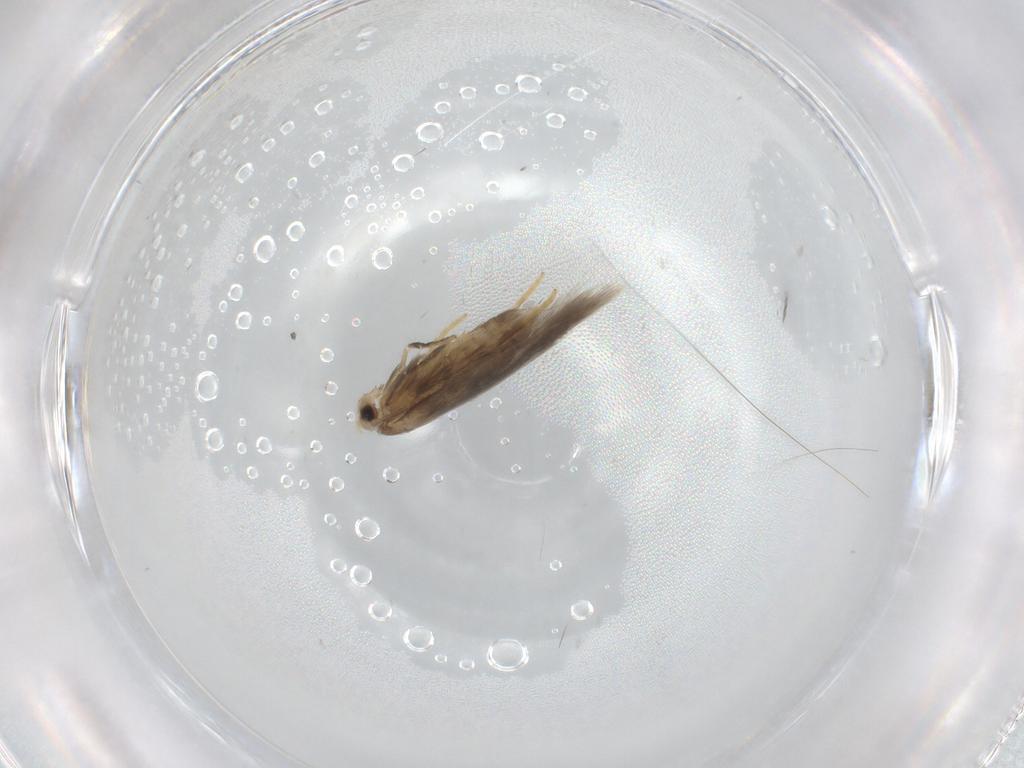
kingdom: Animalia
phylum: Arthropoda
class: Insecta
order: Lepidoptera
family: Nepticulidae
